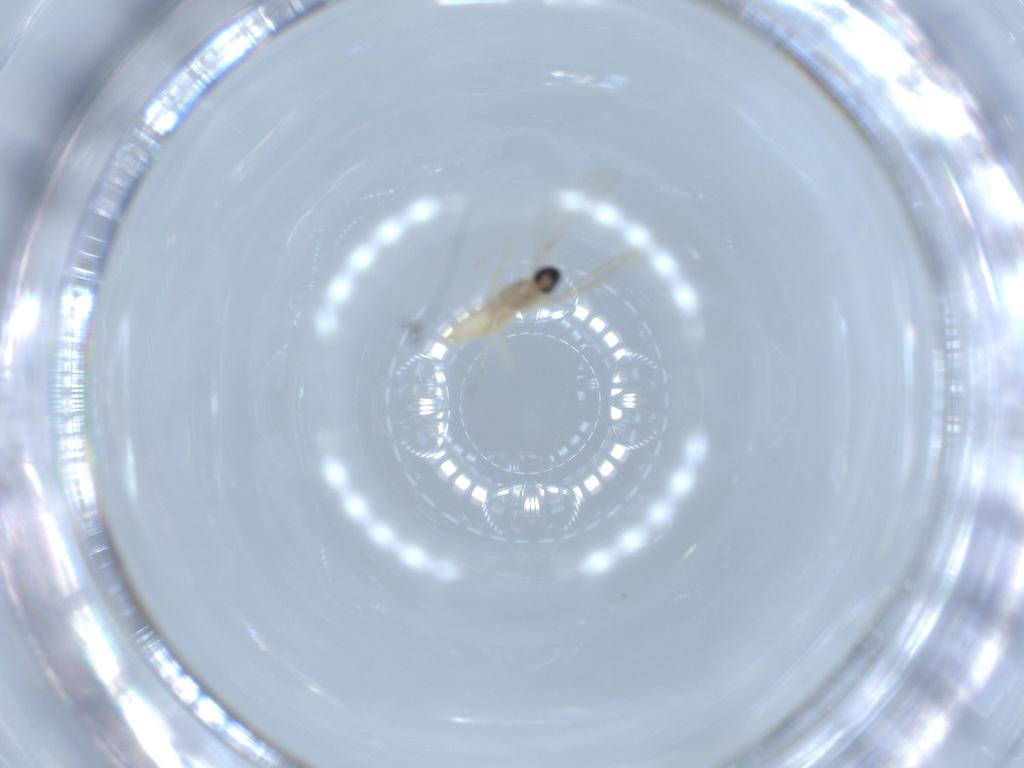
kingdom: Animalia
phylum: Arthropoda
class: Insecta
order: Diptera
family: Cecidomyiidae
